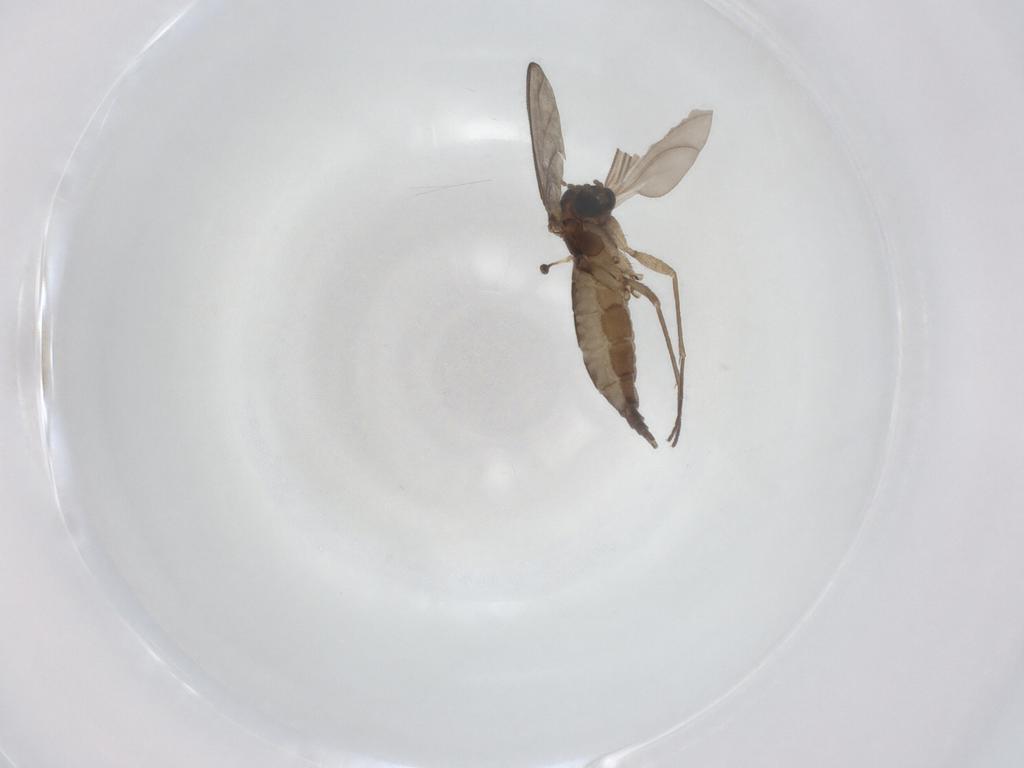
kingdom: Animalia
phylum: Arthropoda
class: Insecta
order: Diptera
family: Sciaridae
